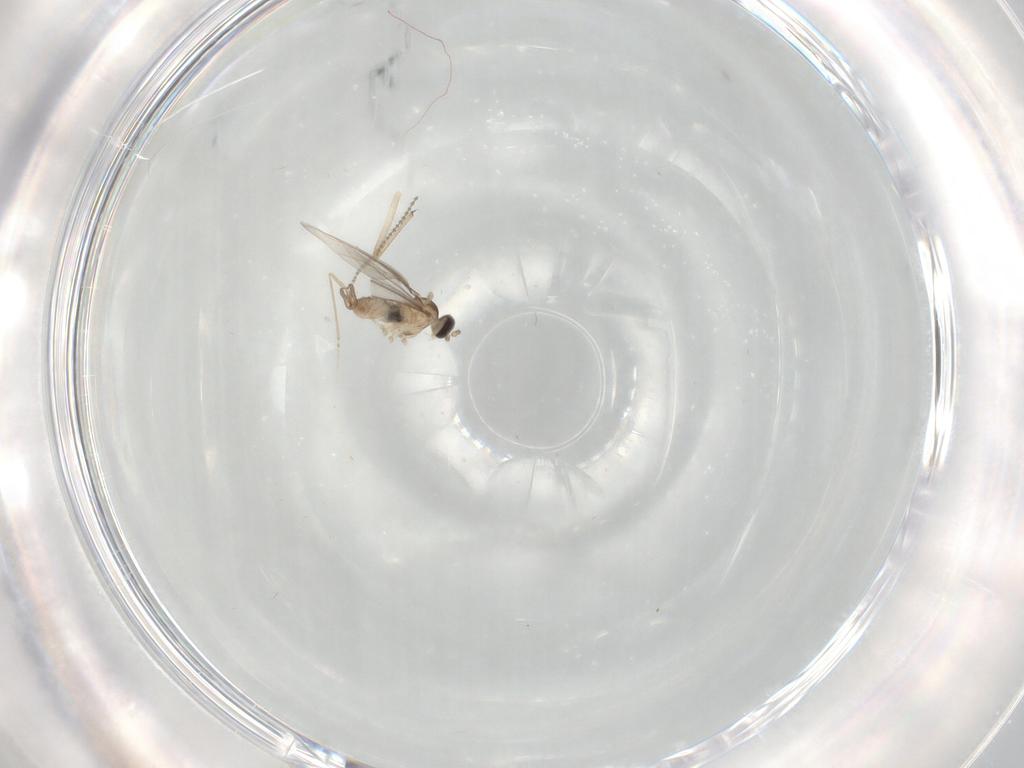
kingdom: Animalia
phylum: Arthropoda
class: Insecta
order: Diptera
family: Cecidomyiidae
